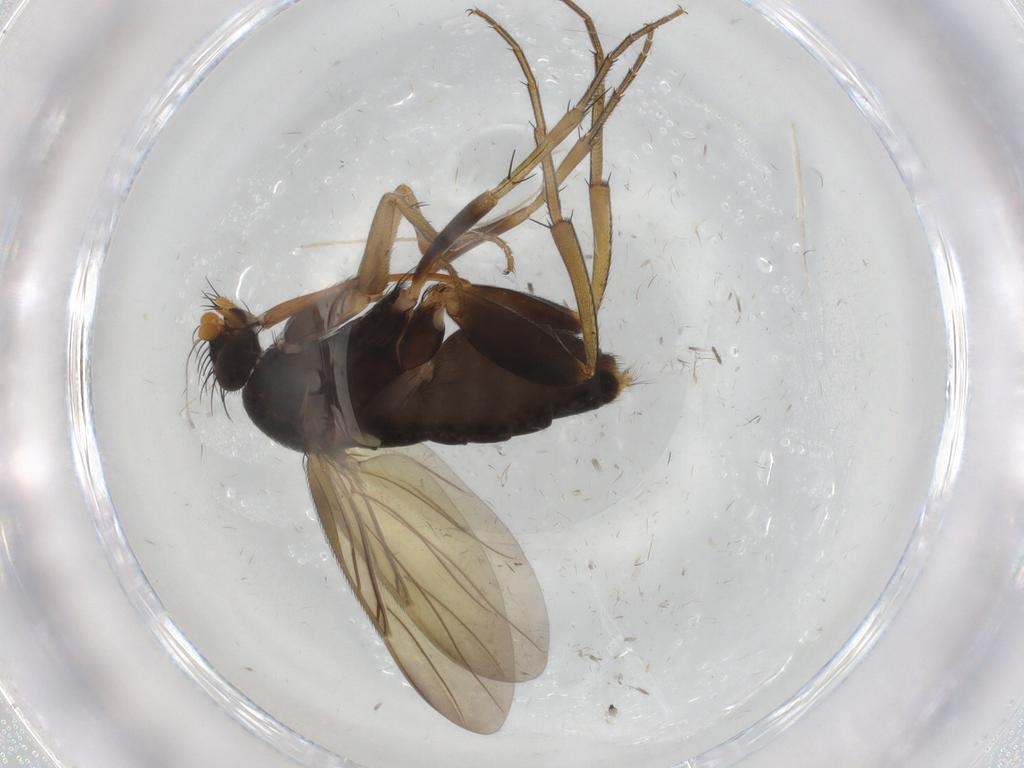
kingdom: Animalia
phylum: Arthropoda
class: Insecta
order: Diptera
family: Phoridae
